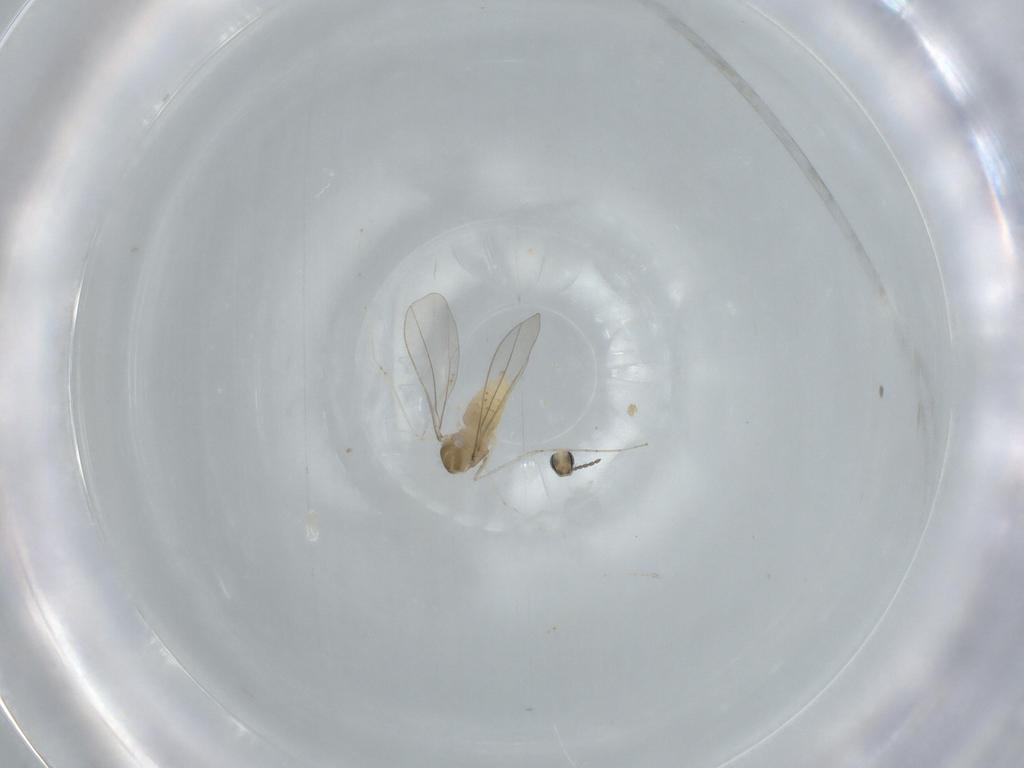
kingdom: Animalia
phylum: Arthropoda
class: Insecta
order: Diptera
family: Cecidomyiidae
